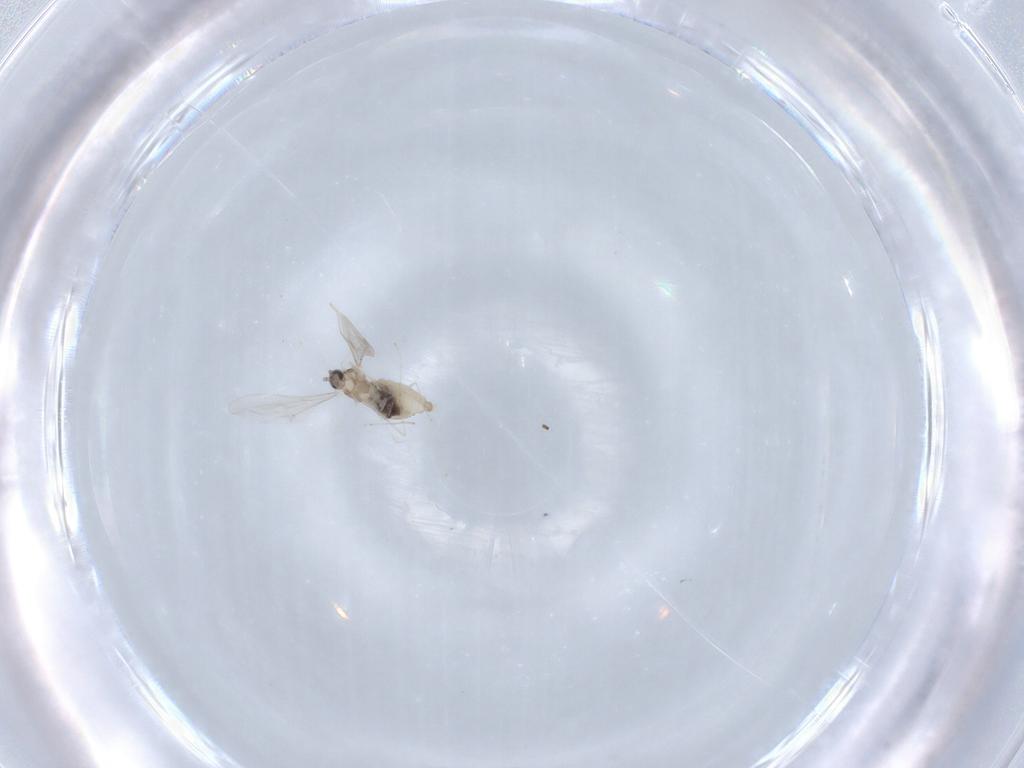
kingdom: Animalia
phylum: Arthropoda
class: Insecta
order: Diptera
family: Cecidomyiidae
